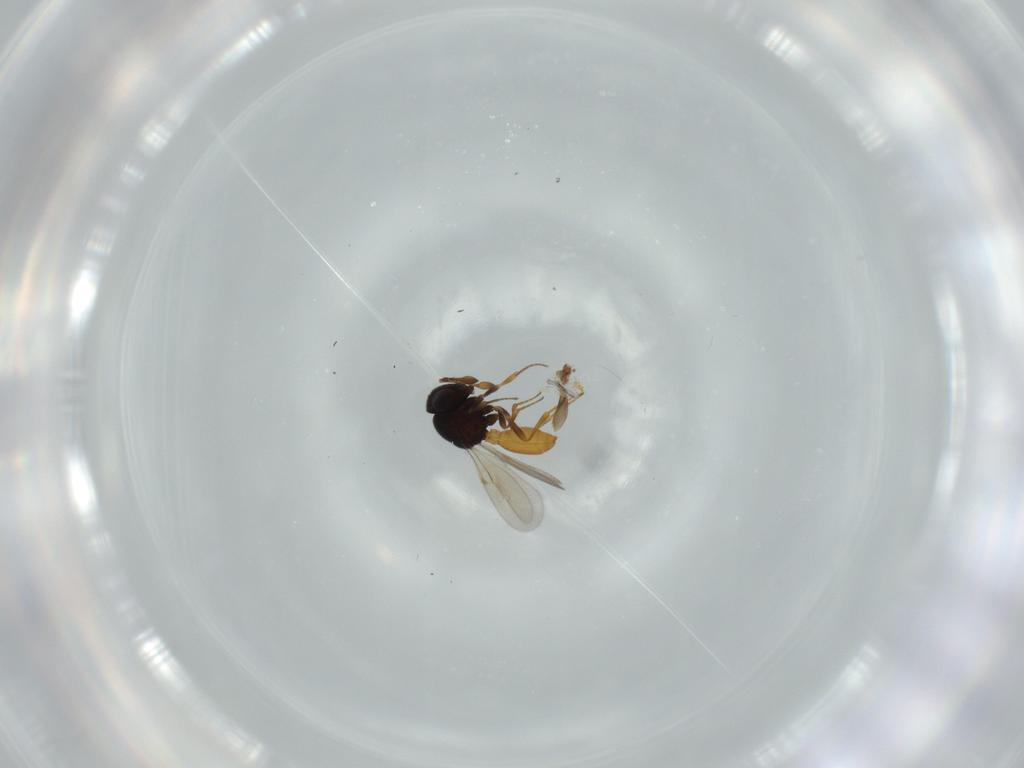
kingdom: Animalia
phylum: Arthropoda
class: Insecta
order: Hymenoptera
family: Scelionidae
